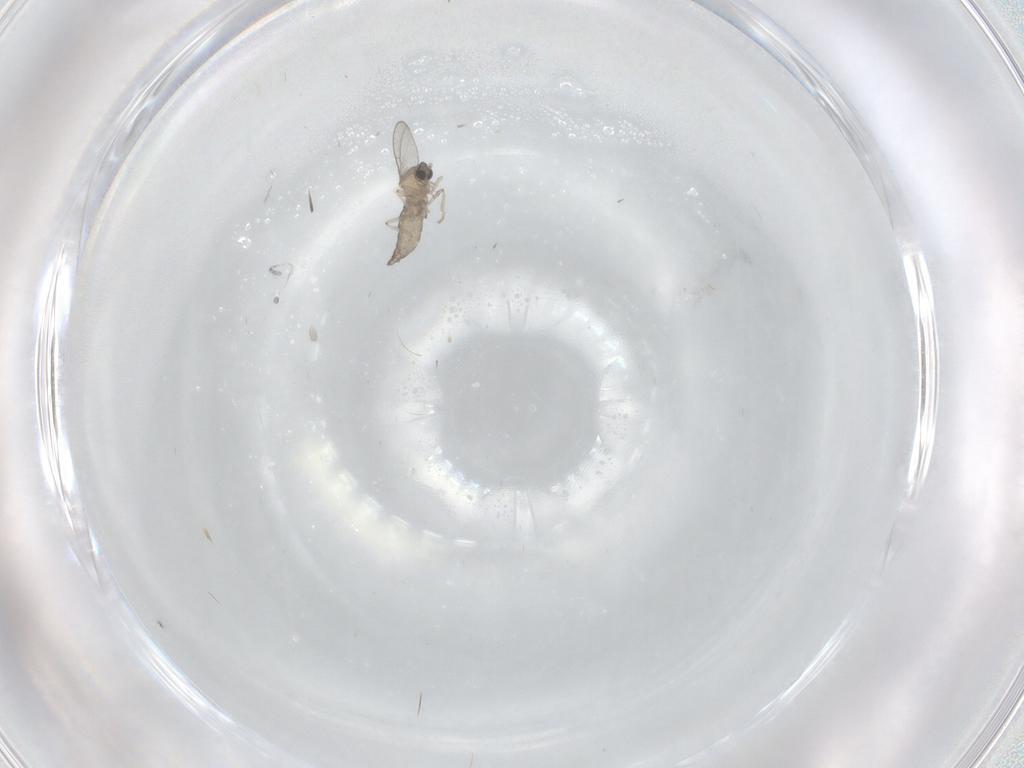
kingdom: Animalia
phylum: Arthropoda
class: Insecta
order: Diptera
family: Cecidomyiidae
